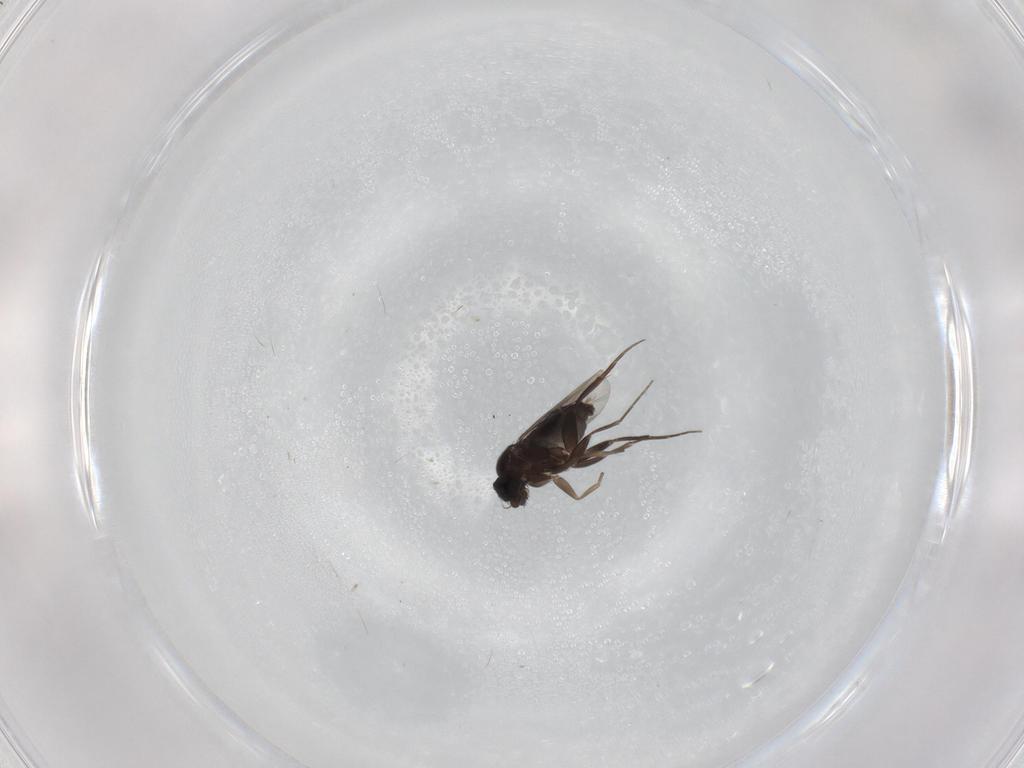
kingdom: Animalia
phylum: Arthropoda
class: Insecta
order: Diptera
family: Phoridae
